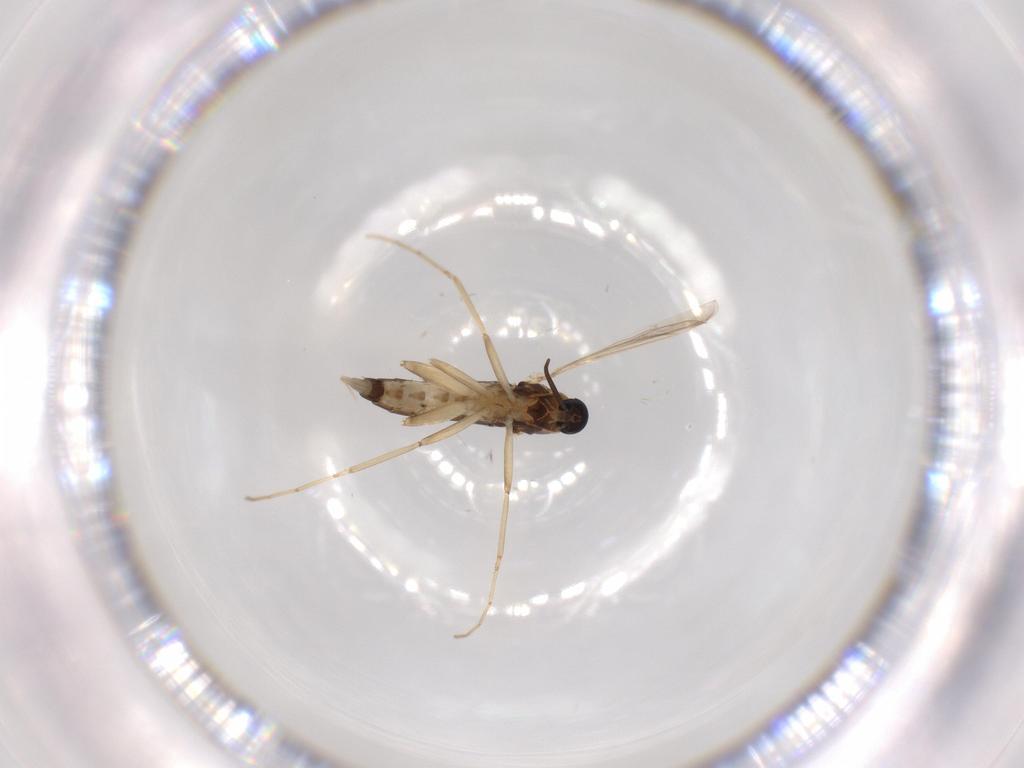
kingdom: Animalia
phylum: Arthropoda
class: Insecta
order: Diptera
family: Cecidomyiidae
